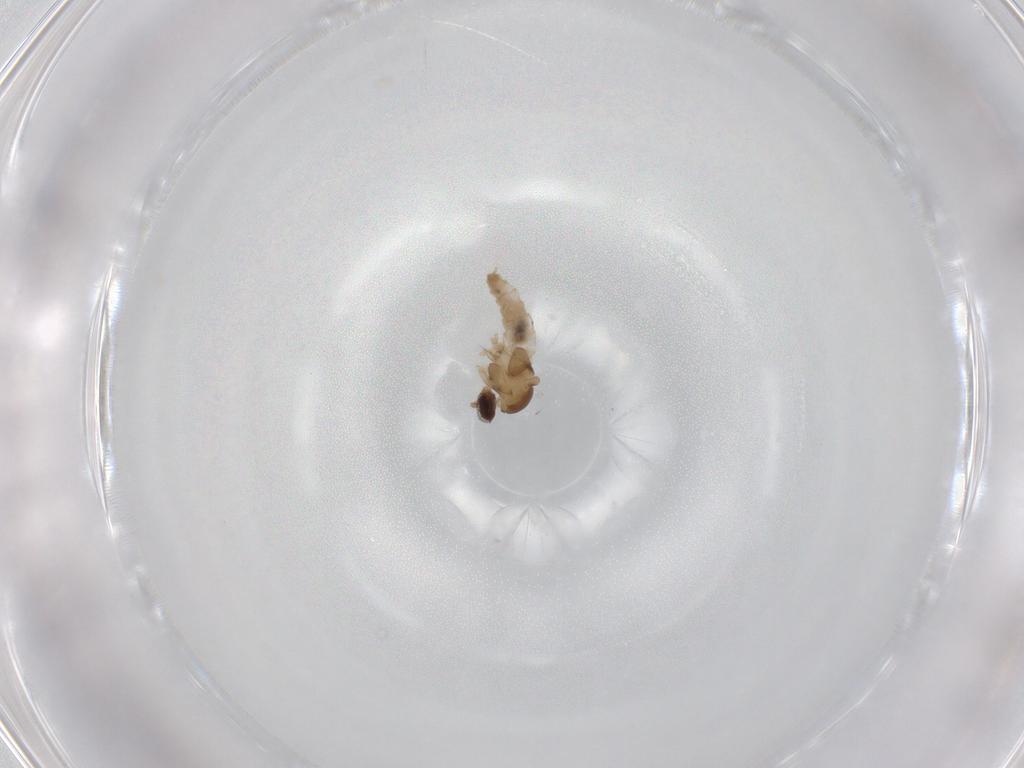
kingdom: Animalia
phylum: Arthropoda
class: Insecta
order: Diptera
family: Cecidomyiidae
